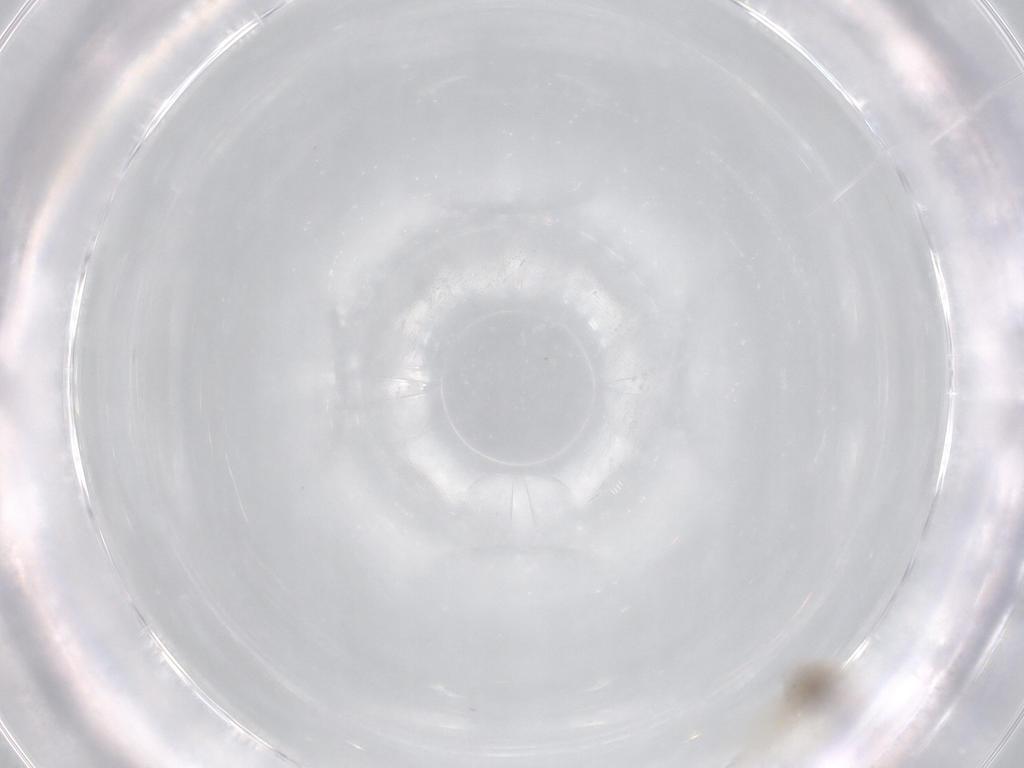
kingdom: Animalia
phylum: Arthropoda
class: Insecta
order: Diptera
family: Cecidomyiidae
